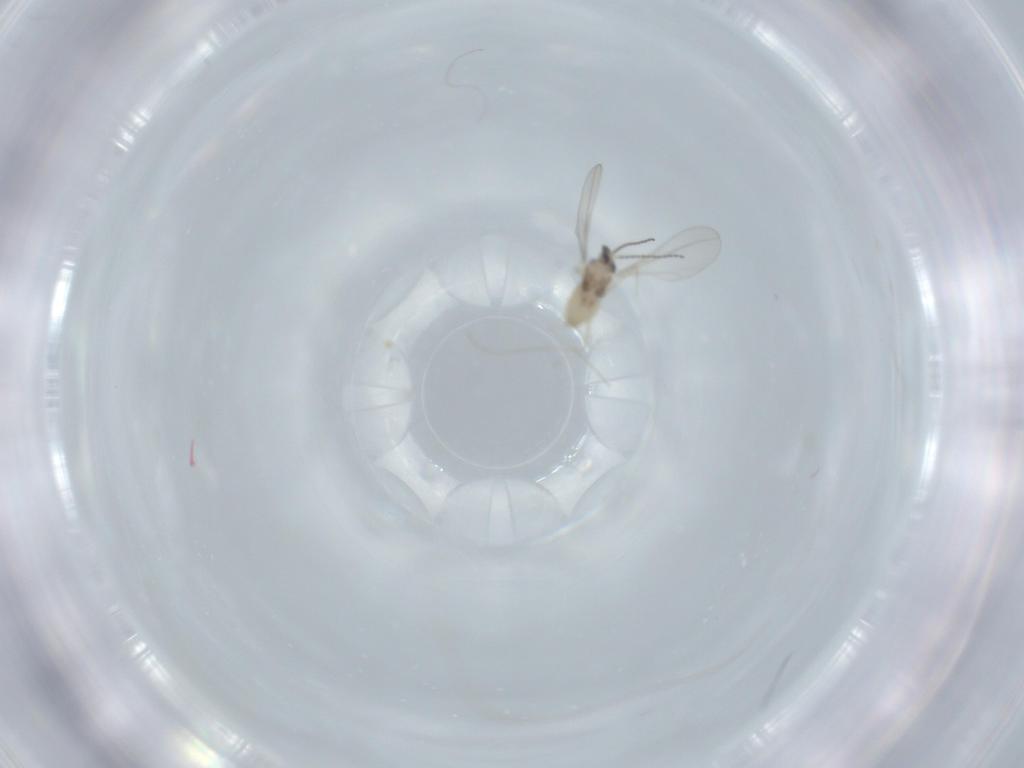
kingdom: Animalia
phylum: Arthropoda
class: Insecta
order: Diptera
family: Cecidomyiidae
